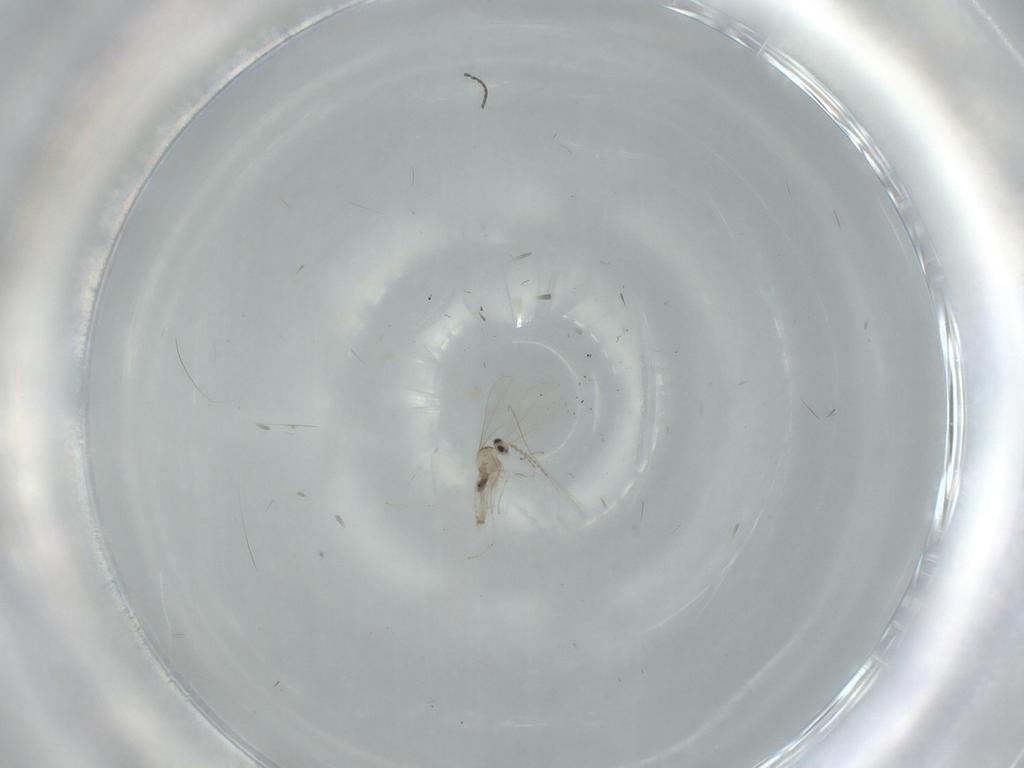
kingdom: Animalia
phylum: Arthropoda
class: Insecta
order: Diptera
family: Cecidomyiidae
